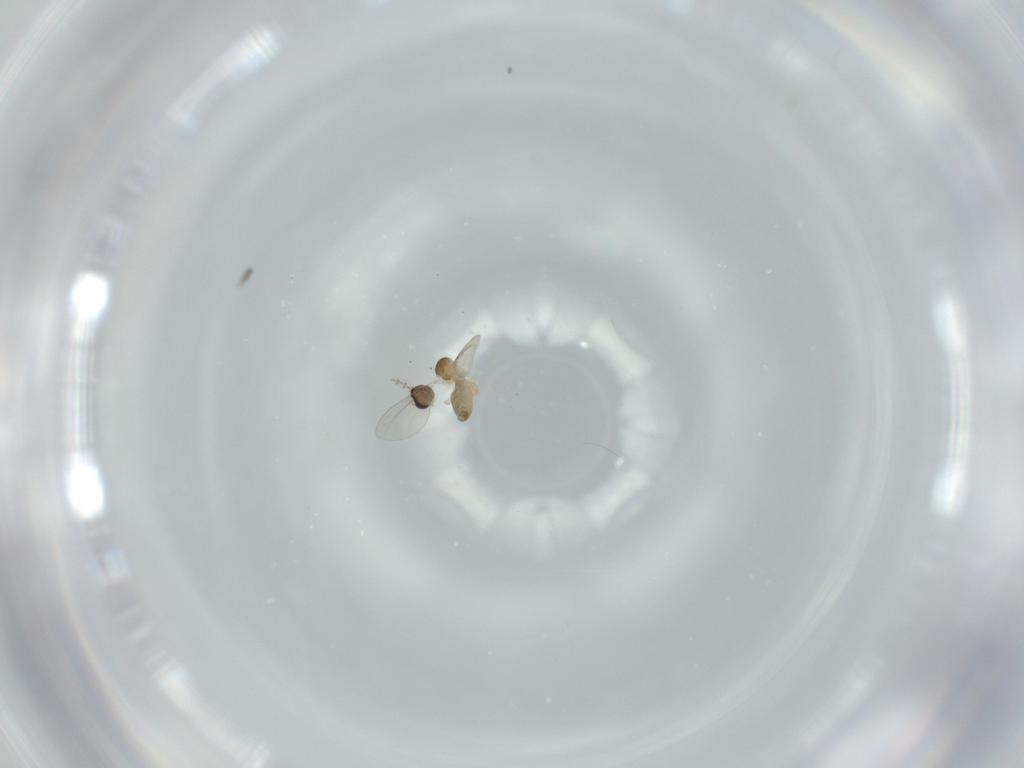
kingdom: Animalia
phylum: Arthropoda
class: Insecta
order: Diptera
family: Cecidomyiidae
